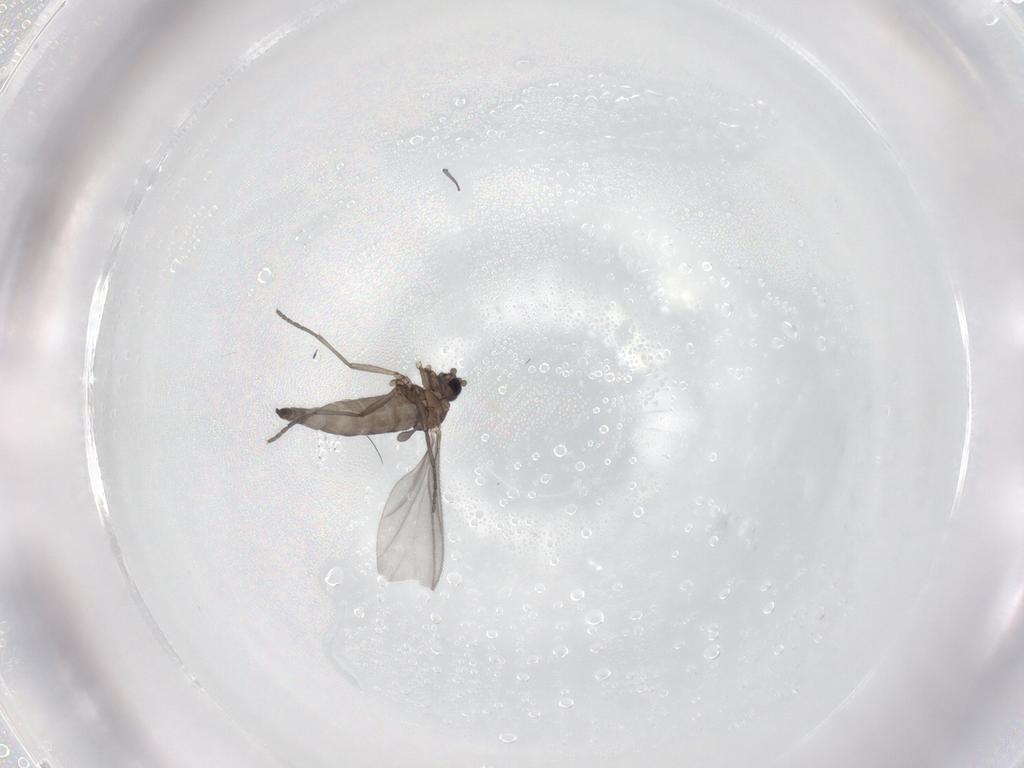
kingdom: Animalia
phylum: Arthropoda
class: Insecta
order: Diptera
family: Sciaridae
